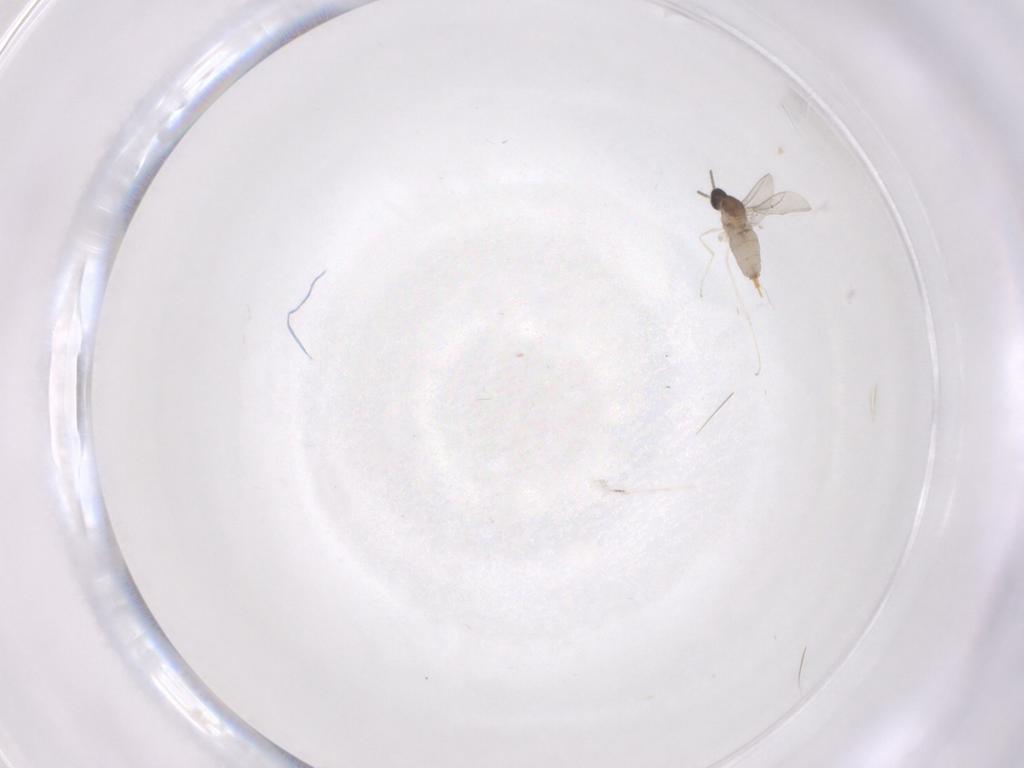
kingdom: Animalia
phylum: Arthropoda
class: Insecta
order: Diptera
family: Cecidomyiidae
